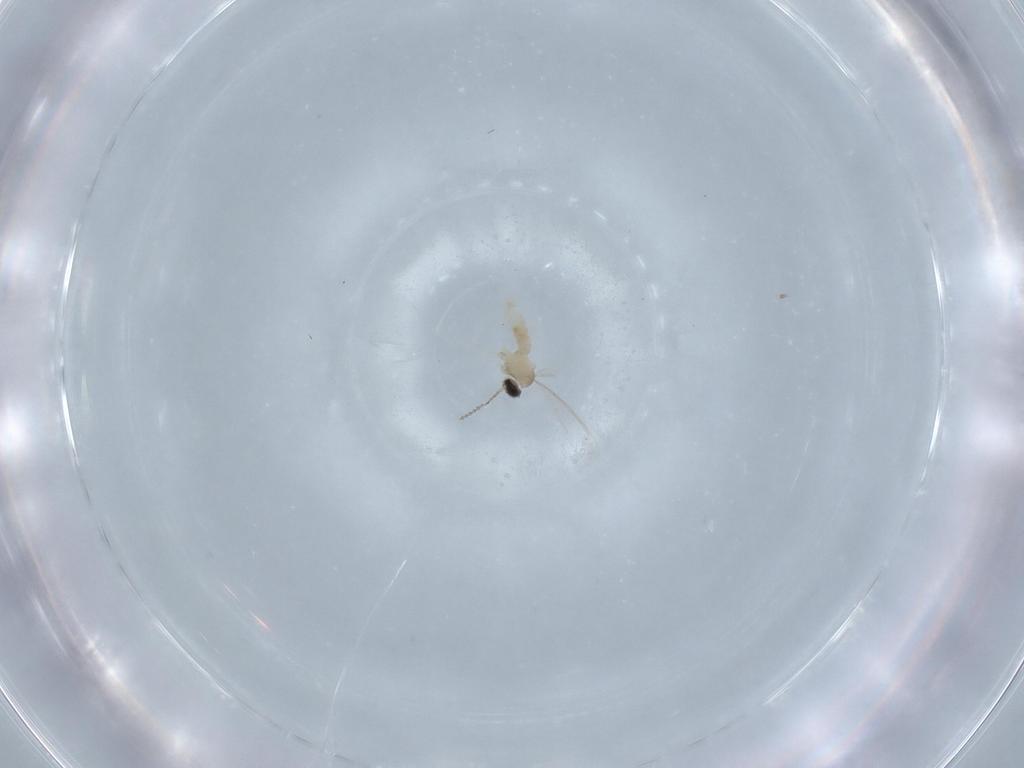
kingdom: Animalia
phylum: Arthropoda
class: Insecta
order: Diptera
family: Cecidomyiidae
